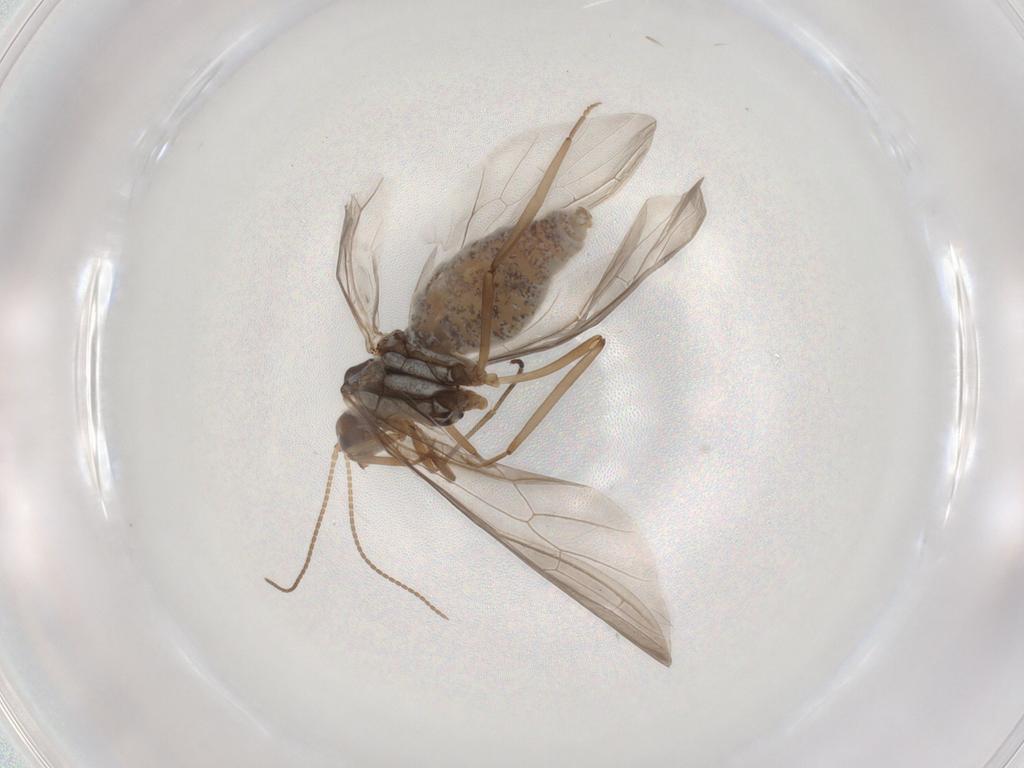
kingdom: Animalia
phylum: Arthropoda
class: Insecta
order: Neuroptera
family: Coniopterygidae
